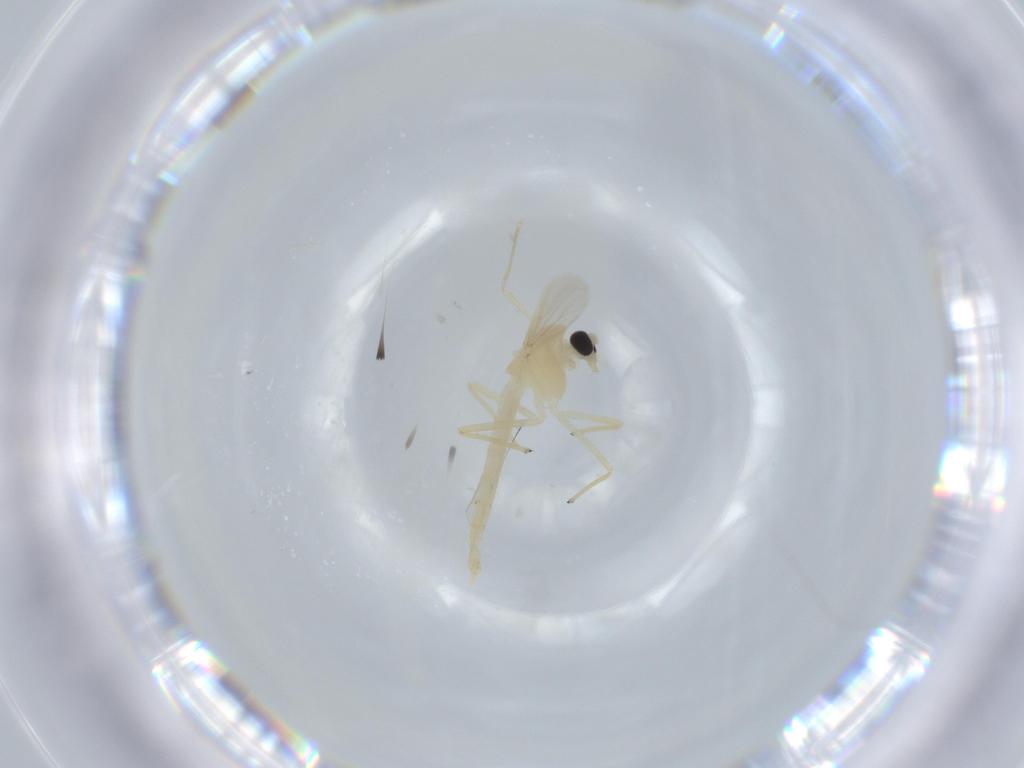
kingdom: Animalia
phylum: Arthropoda
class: Insecta
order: Diptera
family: Chironomidae
